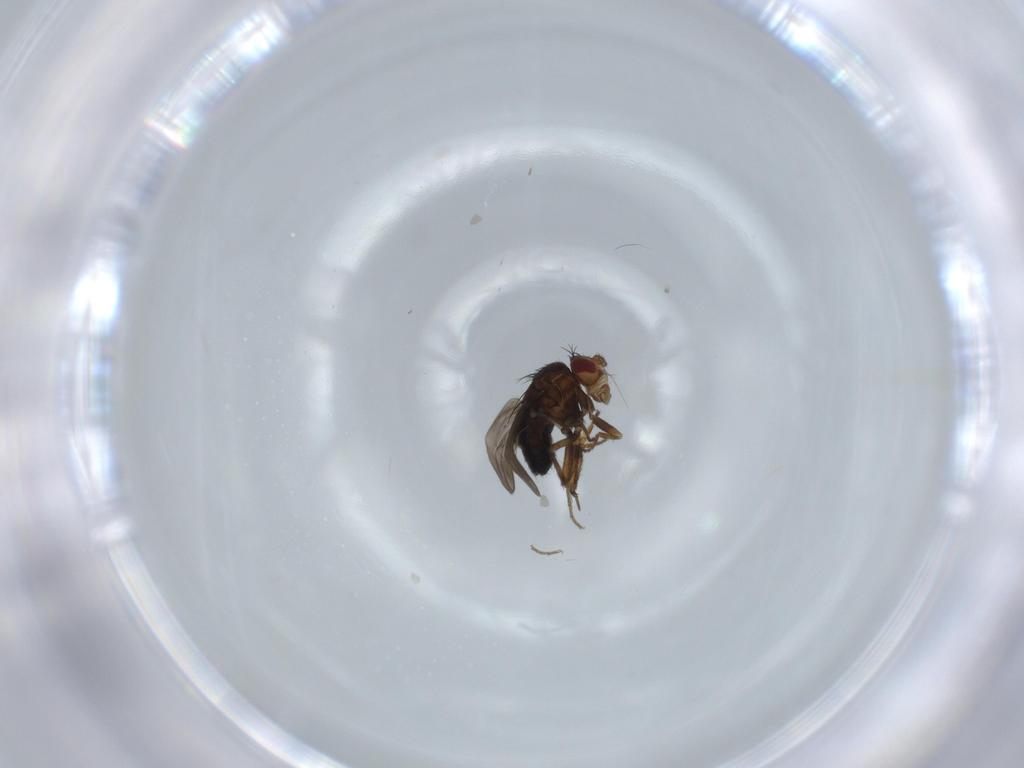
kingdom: Animalia
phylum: Arthropoda
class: Insecta
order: Diptera
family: Sphaeroceridae
